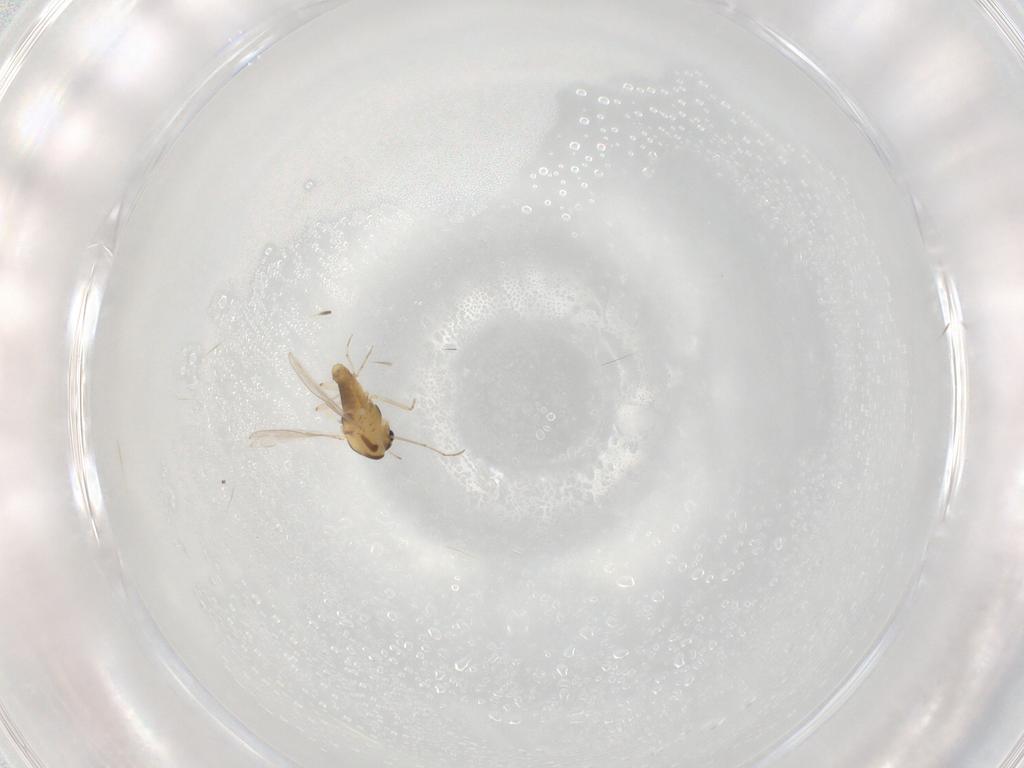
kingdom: Animalia
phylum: Arthropoda
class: Insecta
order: Diptera
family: Chironomidae
